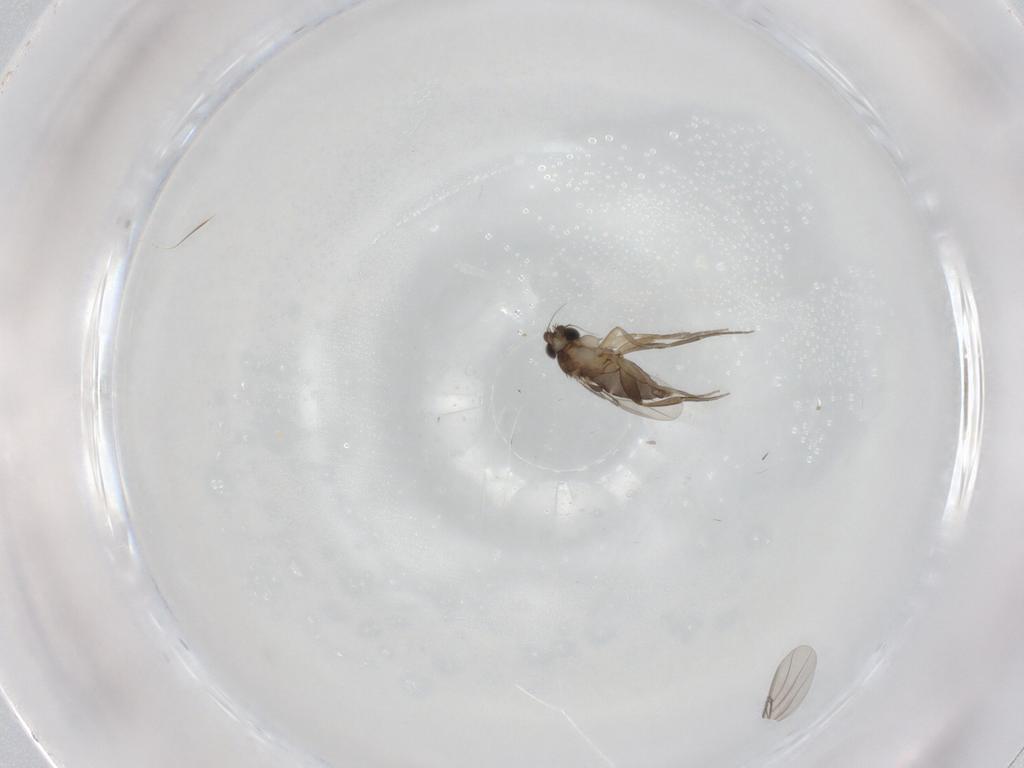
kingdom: Animalia
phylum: Arthropoda
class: Insecta
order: Diptera
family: Phoridae
